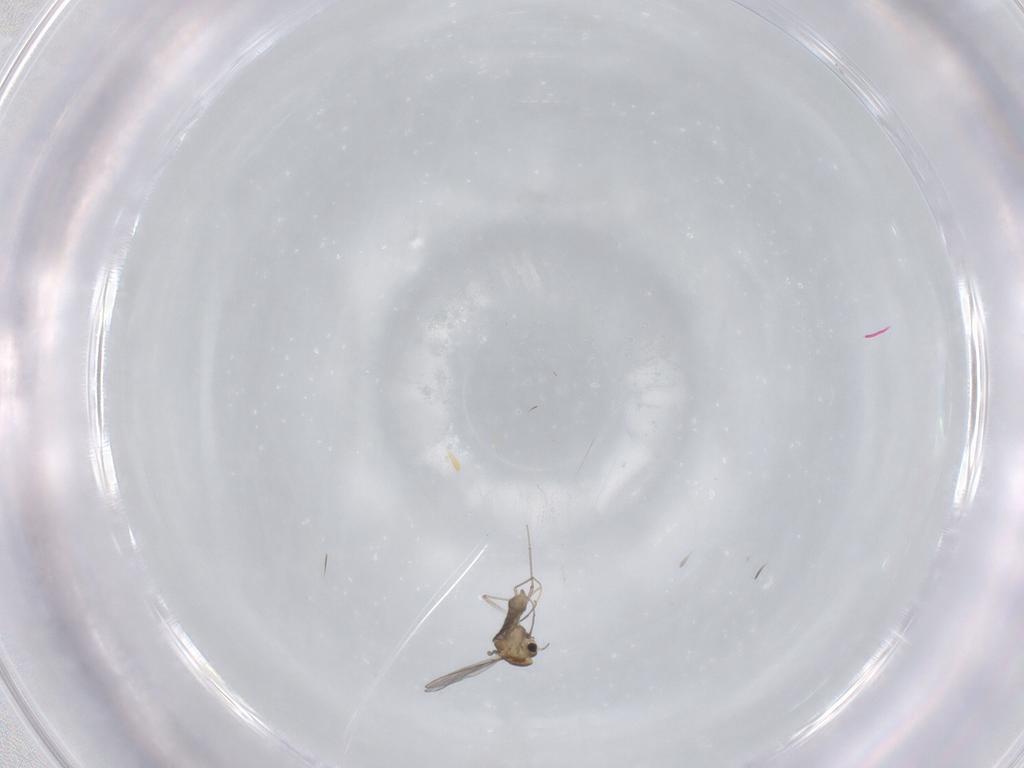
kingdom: Animalia
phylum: Arthropoda
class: Insecta
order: Diptera
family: Chironomidae
